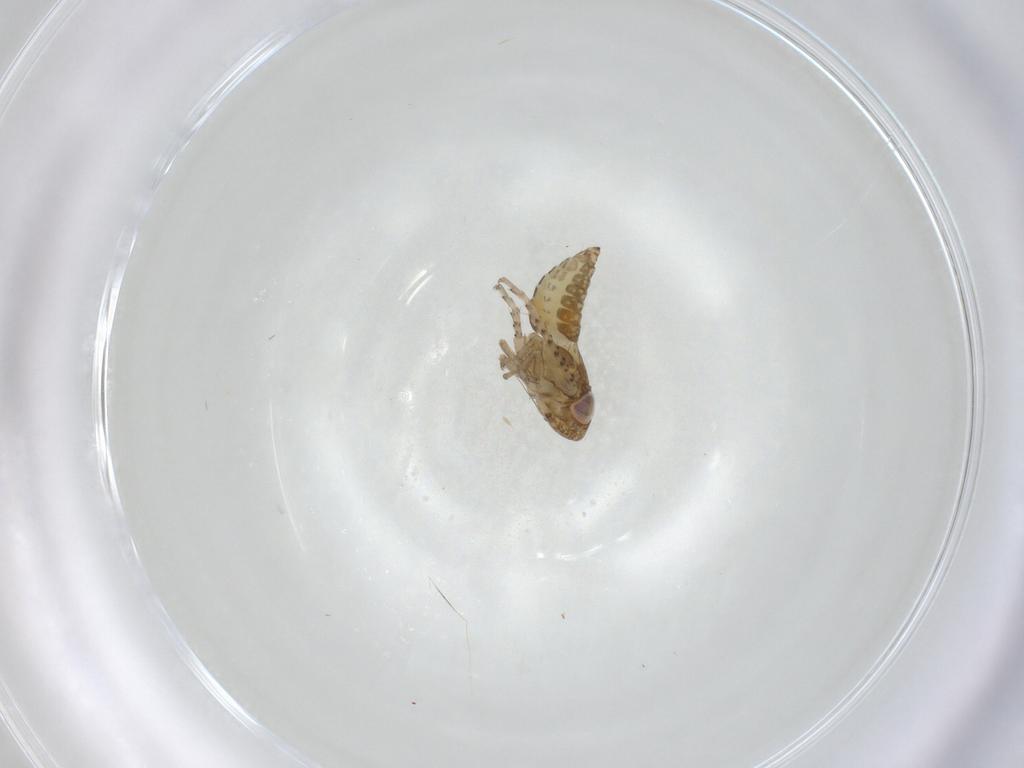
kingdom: Animalia
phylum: Arthropoda
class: Insecta
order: Hemiptera
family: Cicadellidae
